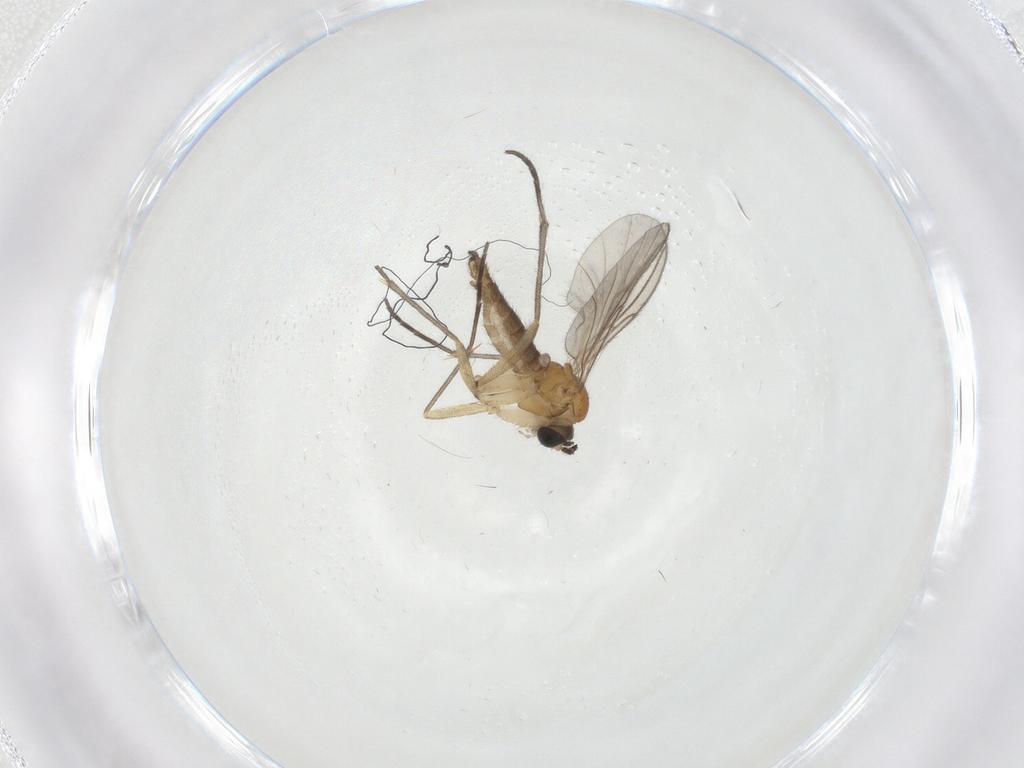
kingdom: Animalia
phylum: Arthropoda
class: Insecta
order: Diptera
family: Sciaridae
